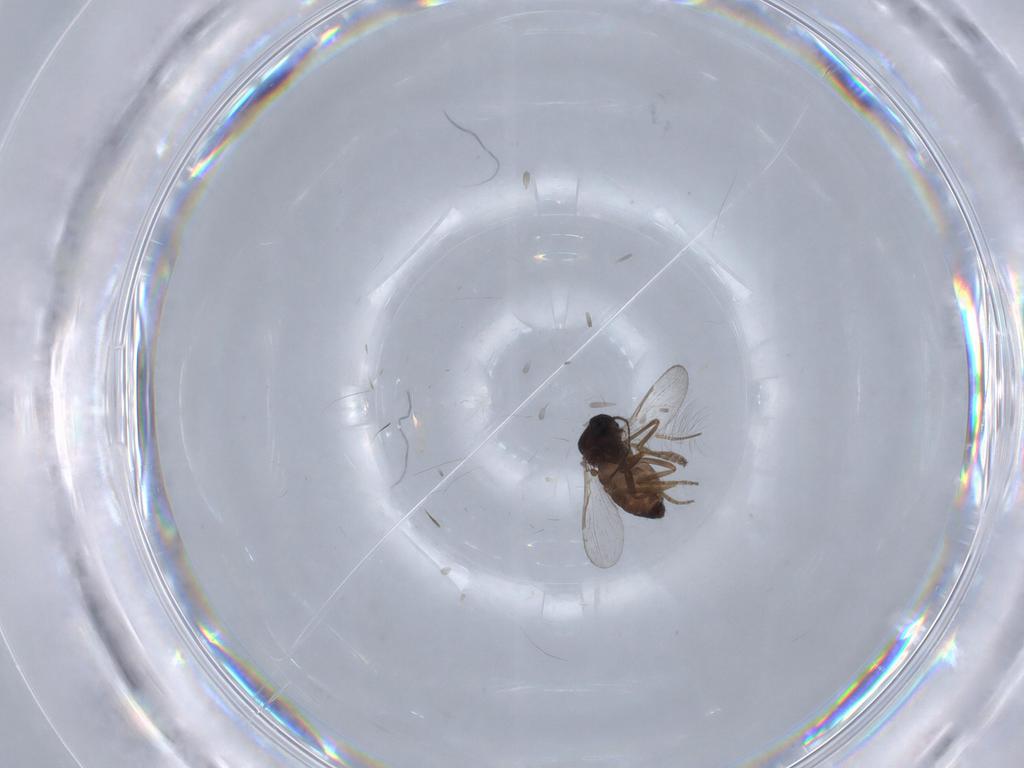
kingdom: Animalia
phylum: Arthropoda
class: Insecta
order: Diptera
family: Ceratopogonidae
